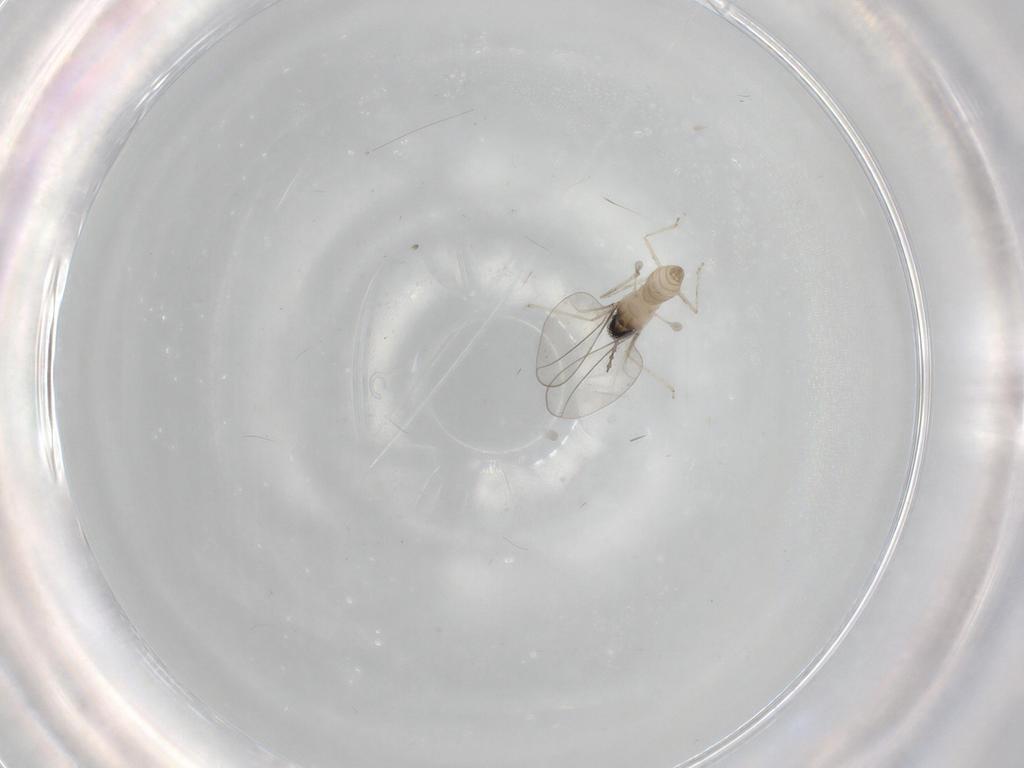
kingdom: Animalia
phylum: Arthropoda
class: Insecta
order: Diptera
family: Cecidomyiidae
